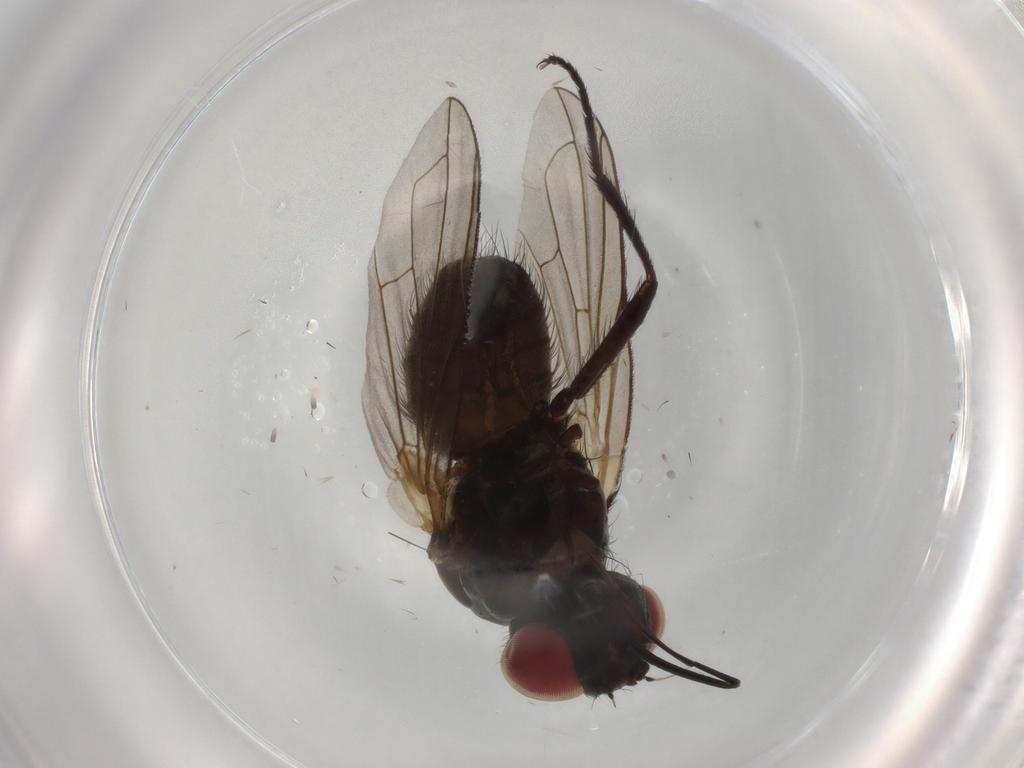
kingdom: Animalia
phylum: Arthropoda
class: Insecta
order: Diptera
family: Tachinidae
